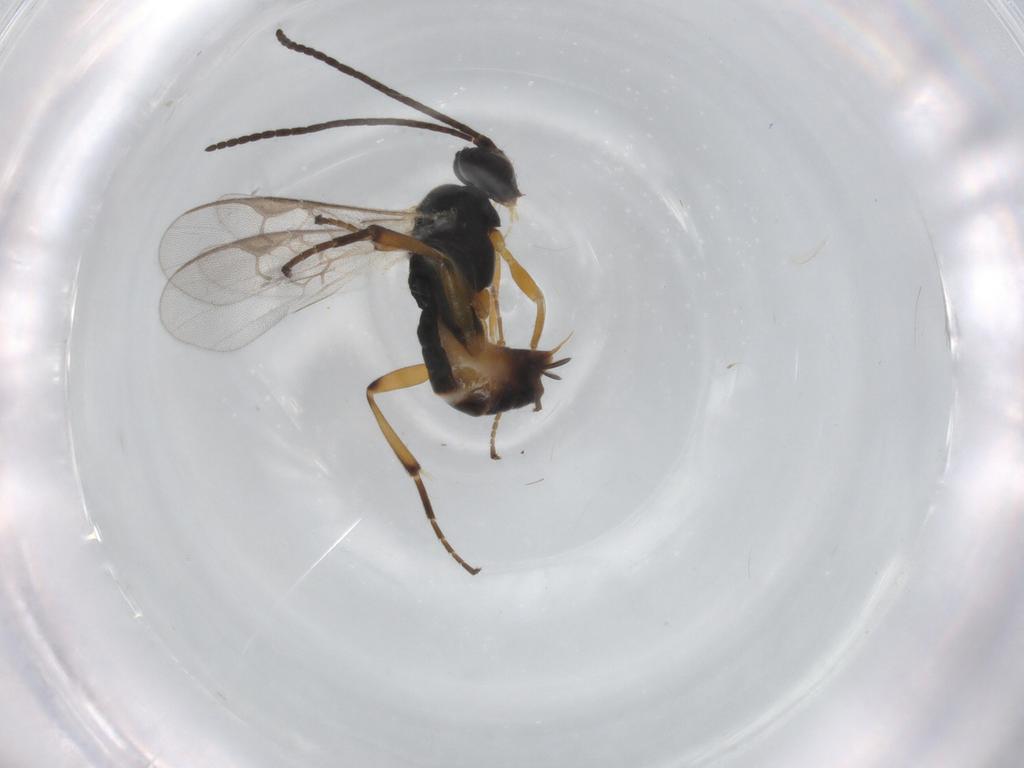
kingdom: Animalia
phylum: Arthropoda
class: Insecta
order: Hymenoptera
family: Braconidae
